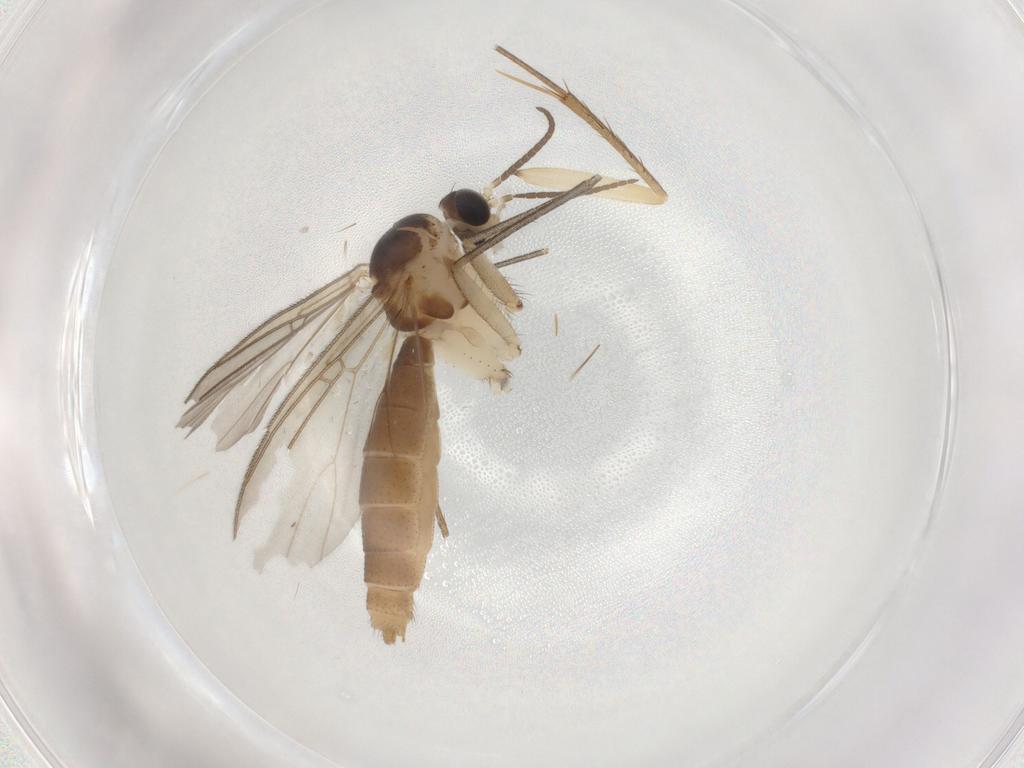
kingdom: Animalia
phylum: Arthropoda
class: Insecta
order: Diptera
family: Mycetophilidae
